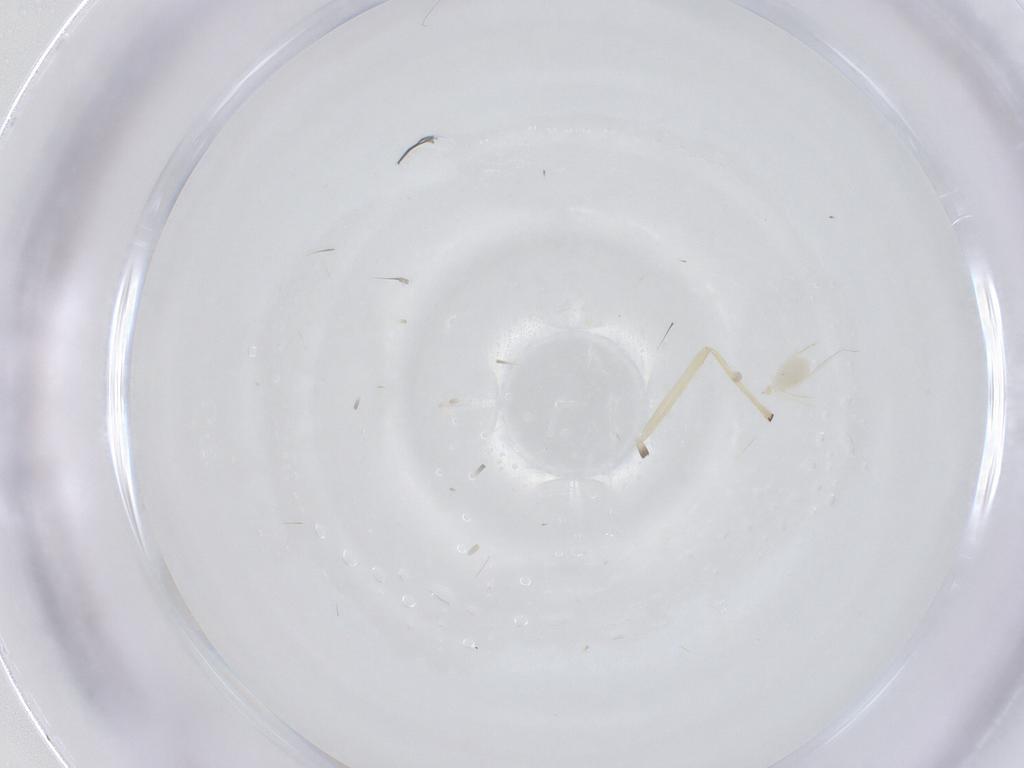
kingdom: Animalia
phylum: Arthropoda
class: Insecta
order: Diptera
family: Chironomidae
